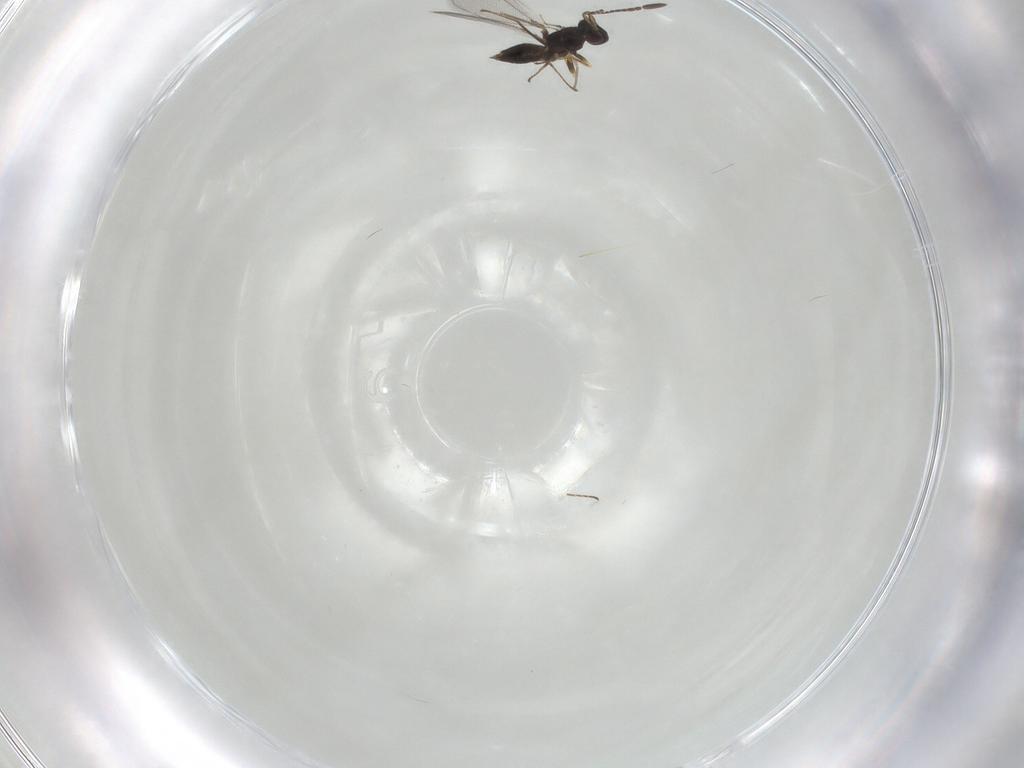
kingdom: Animalia
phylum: Arthropoda
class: Insecta
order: Hymenoptera
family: Mymaridae
